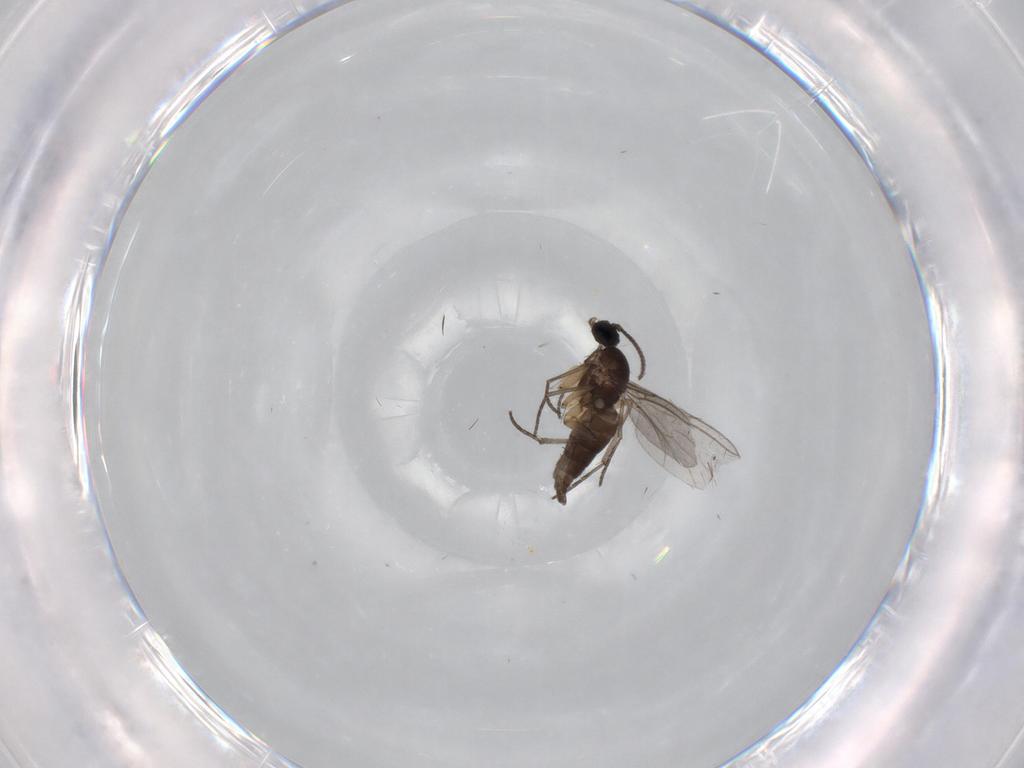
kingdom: Animalia
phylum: Arthropoda
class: Insecta
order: Diptera
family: Sciaridae
